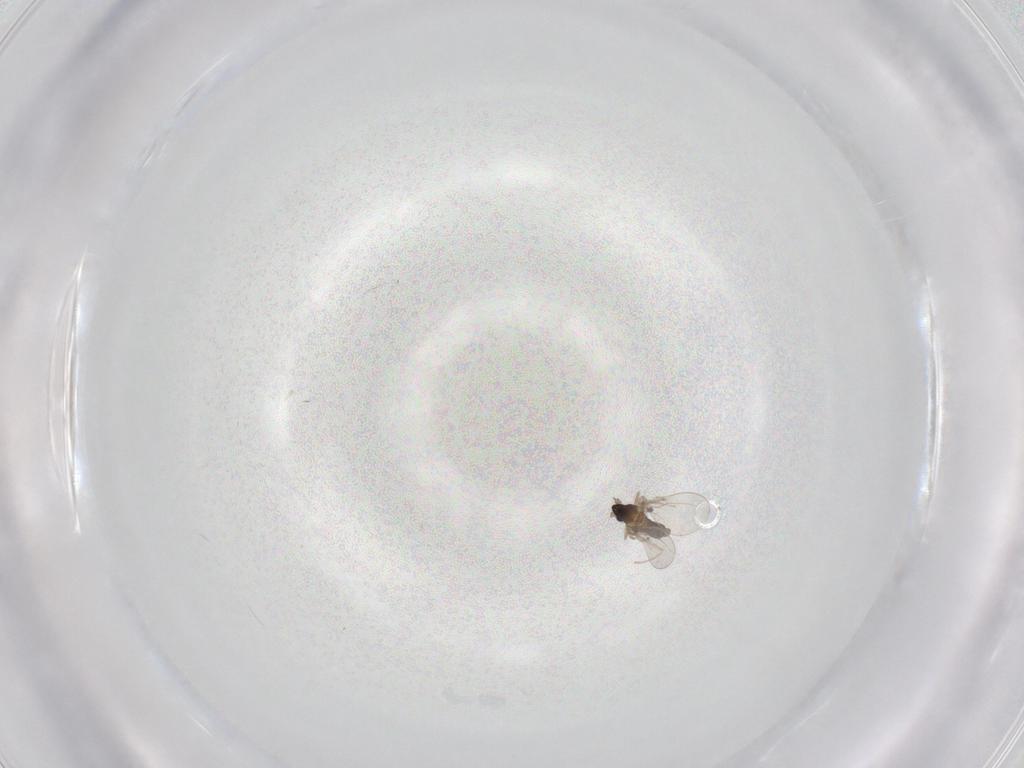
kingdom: Animalia
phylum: Arthropoda
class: Insecta
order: Diptera
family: Cecidomyiidae
